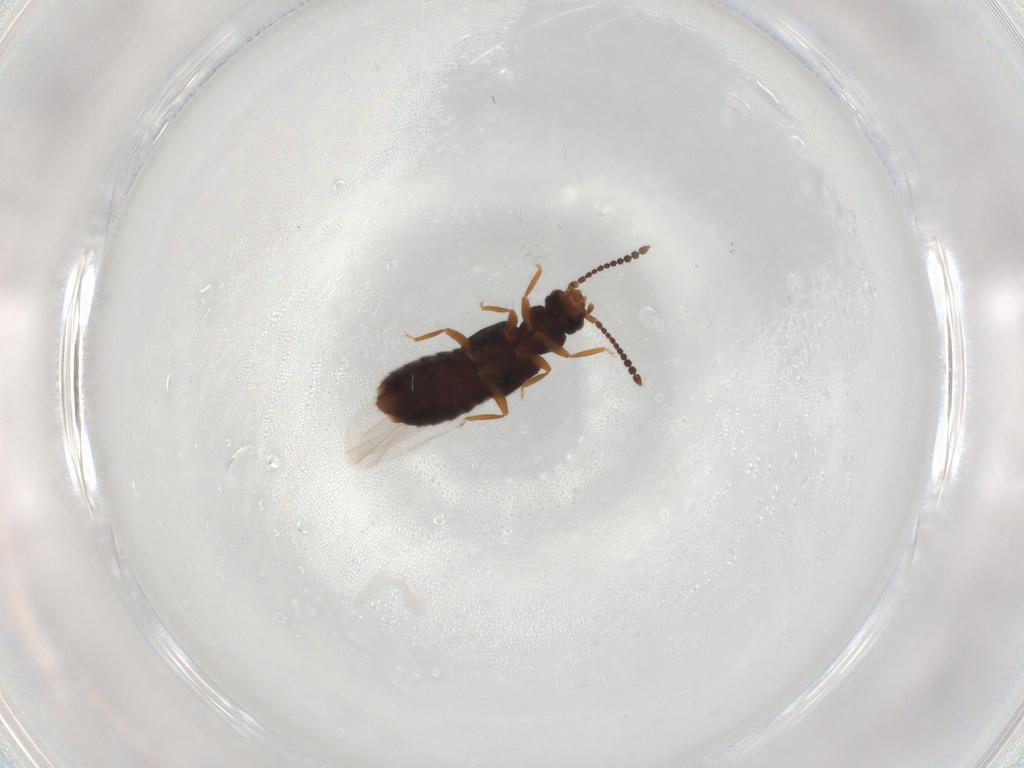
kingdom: Animalia
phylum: Arthropoda
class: Insecta
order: Coleoptera
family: Staphylinidae
